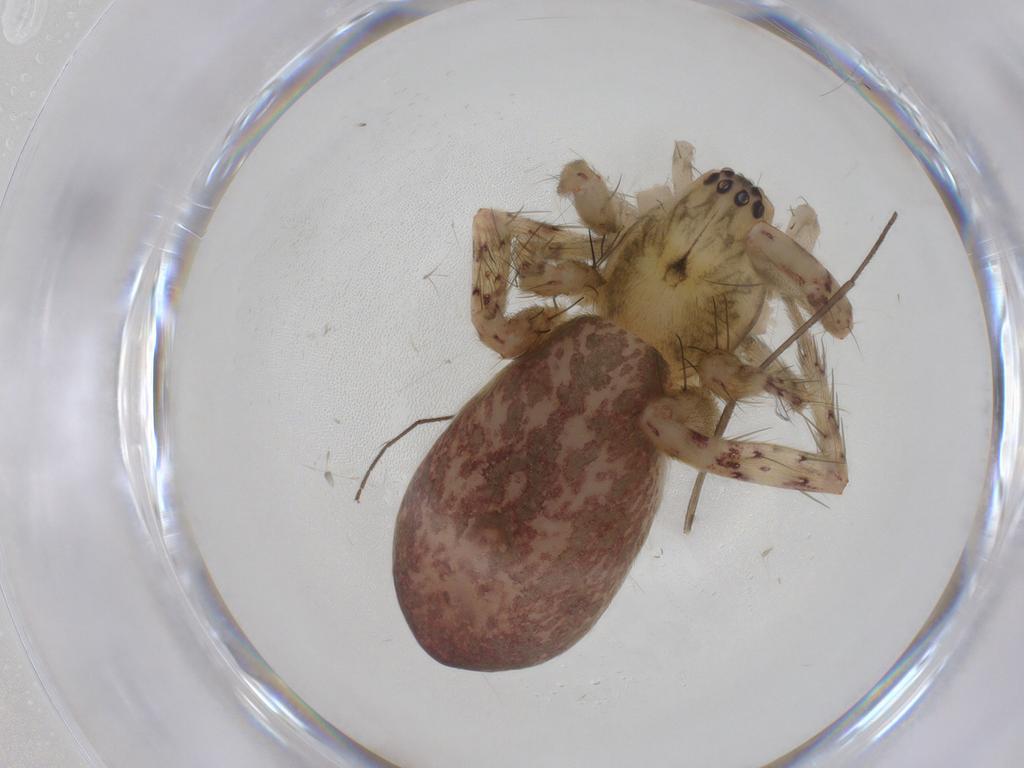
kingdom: Animalia
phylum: Arthropoda
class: Arachnida
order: Araneae
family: Anyphaenidae
